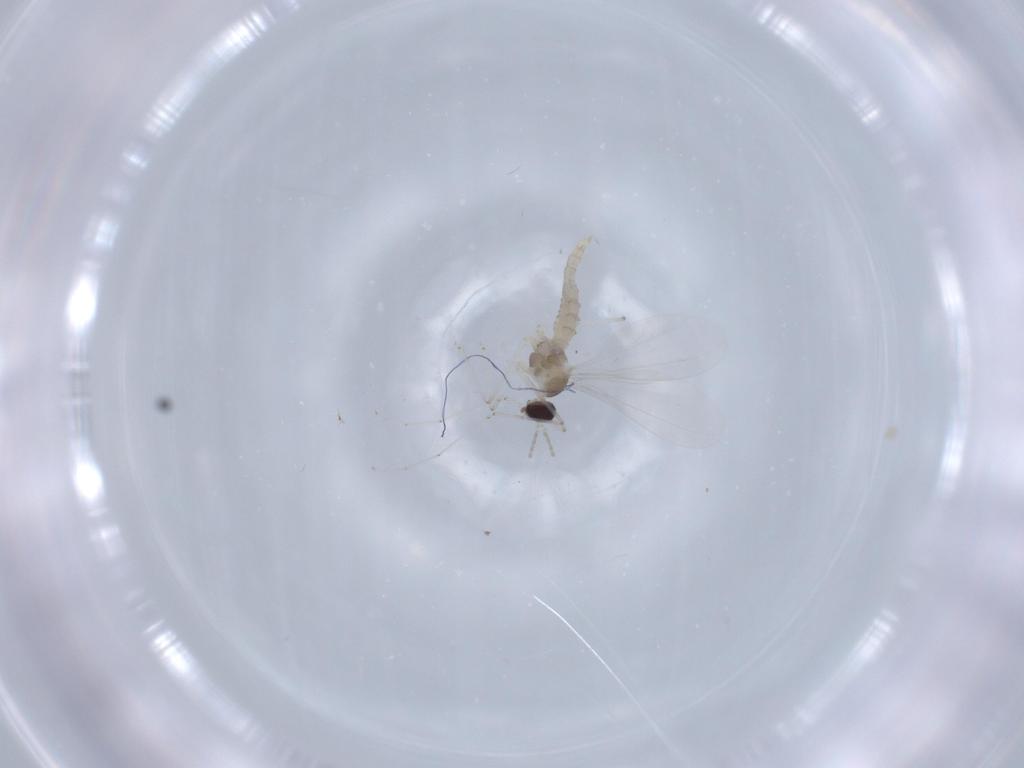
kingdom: Animalia
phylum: Arthropoda
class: Insecta
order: Diptera
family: Cecidomyiidae
